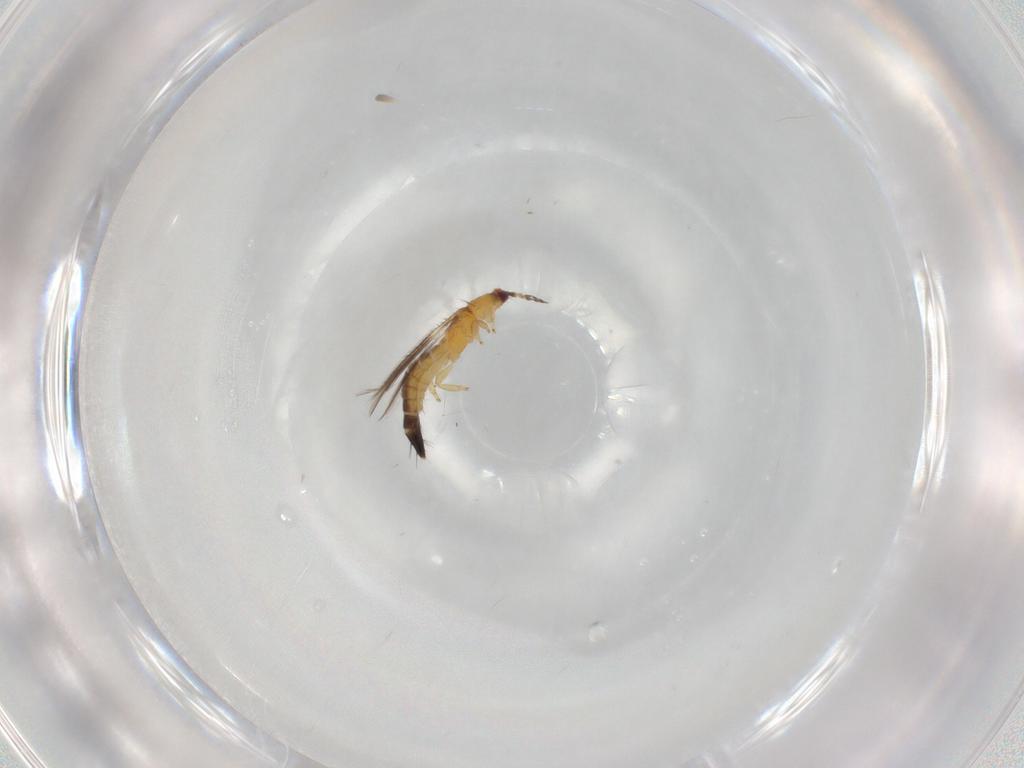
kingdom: Animalia
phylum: Arthropoda
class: Insecta
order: Thysanoptera
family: Thripidae
